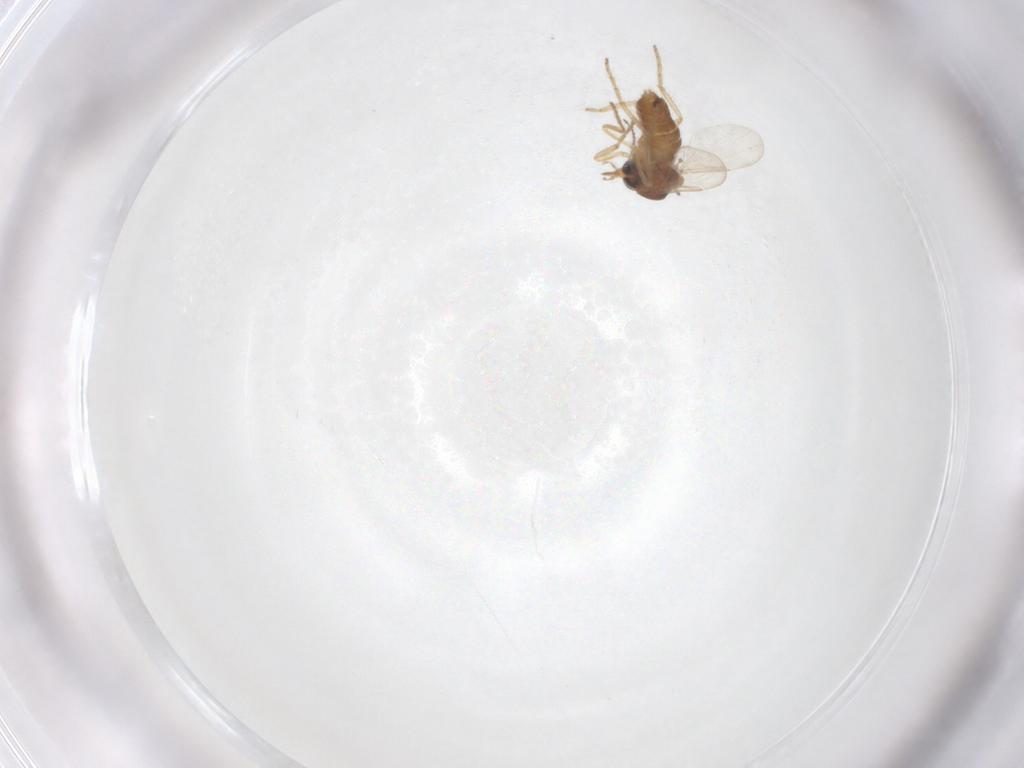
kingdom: Animalia
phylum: Arthropoda
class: Insecta
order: Diptera
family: Ceratopogonidae
